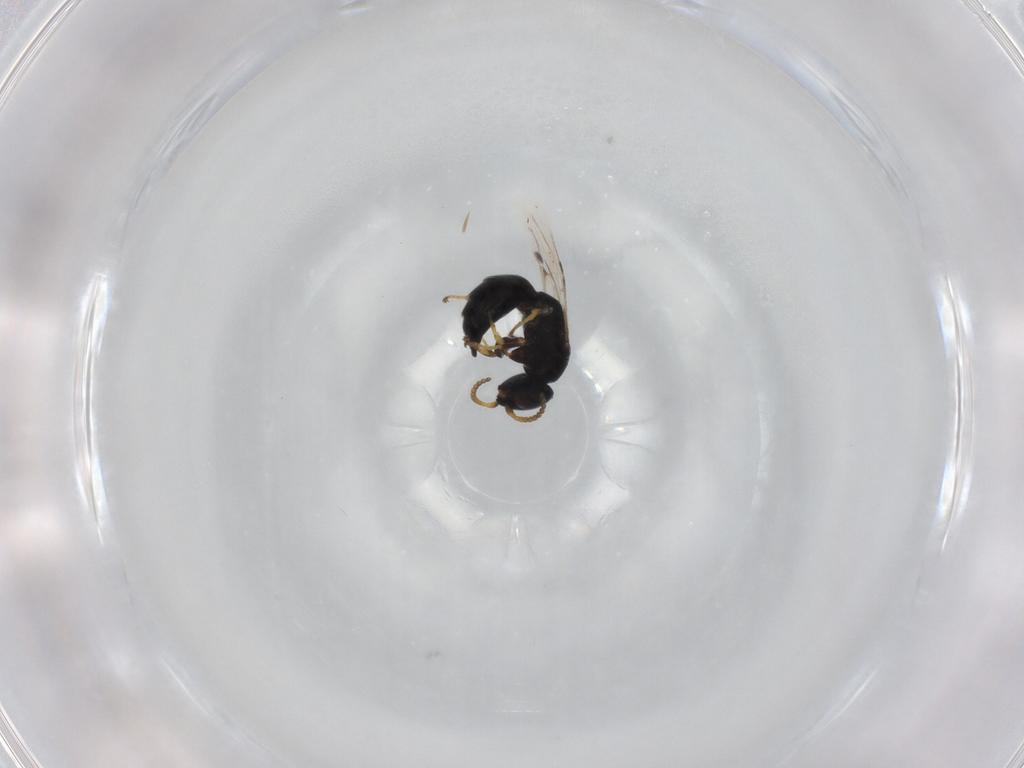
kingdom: Animalia
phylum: Arthropoda
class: Insecta
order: Hymenoptera
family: Bethylidae
